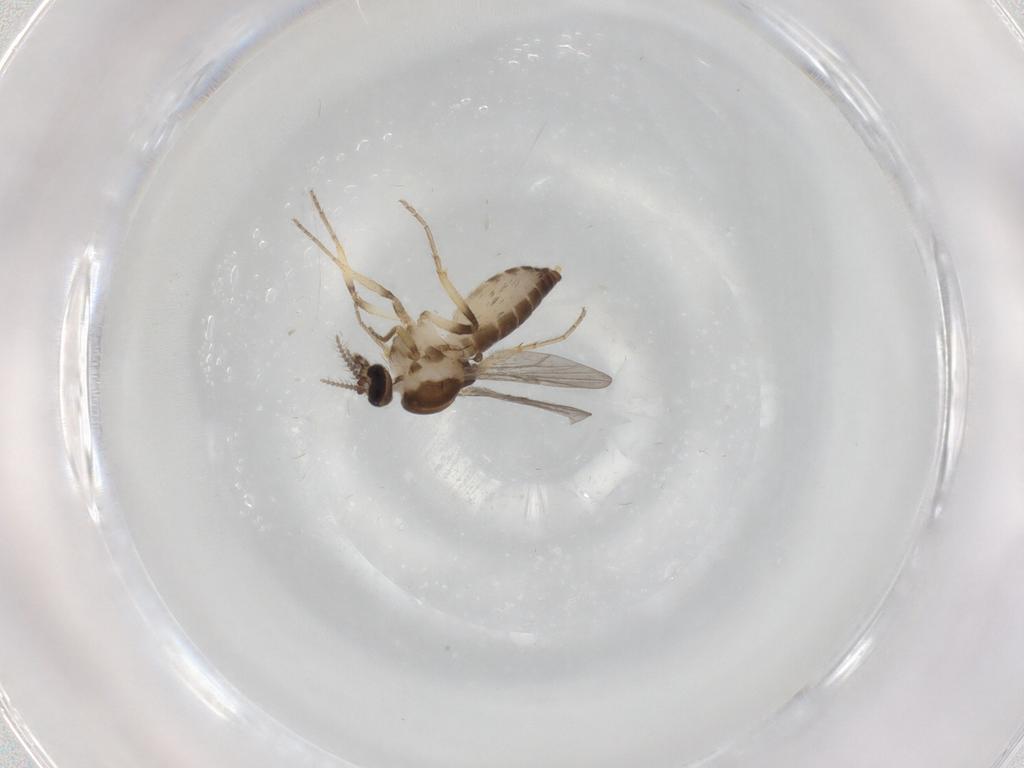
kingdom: Animalia
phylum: Arthropoda
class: Insecta
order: Diptera
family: Ceratopogonidae
